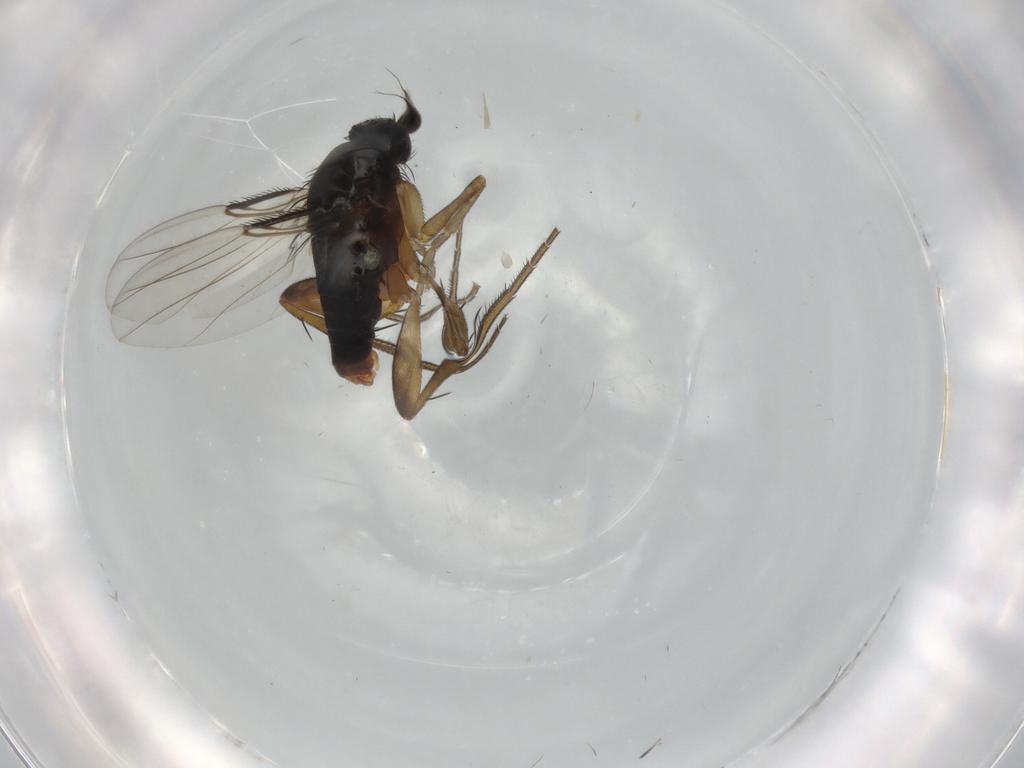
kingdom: Animalia
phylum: Arthropoda
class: Insecta
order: Diptera
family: Phoridae
